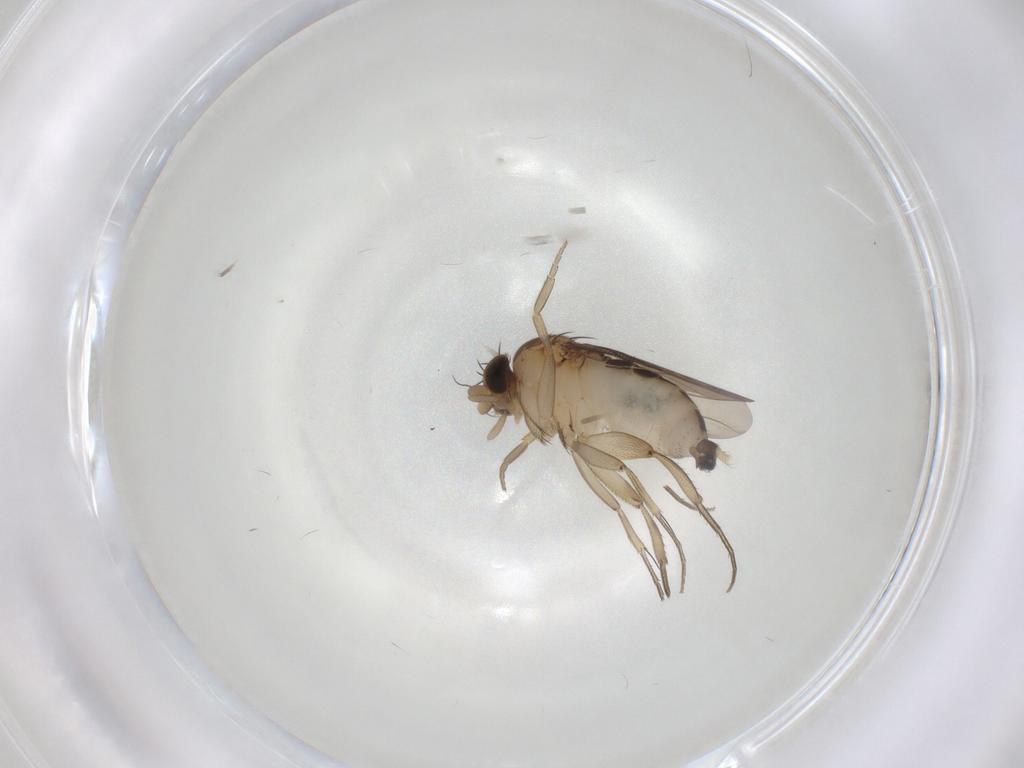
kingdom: Animalia
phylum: Arthropoda
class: Insecta
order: Diptera
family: Phoridae
